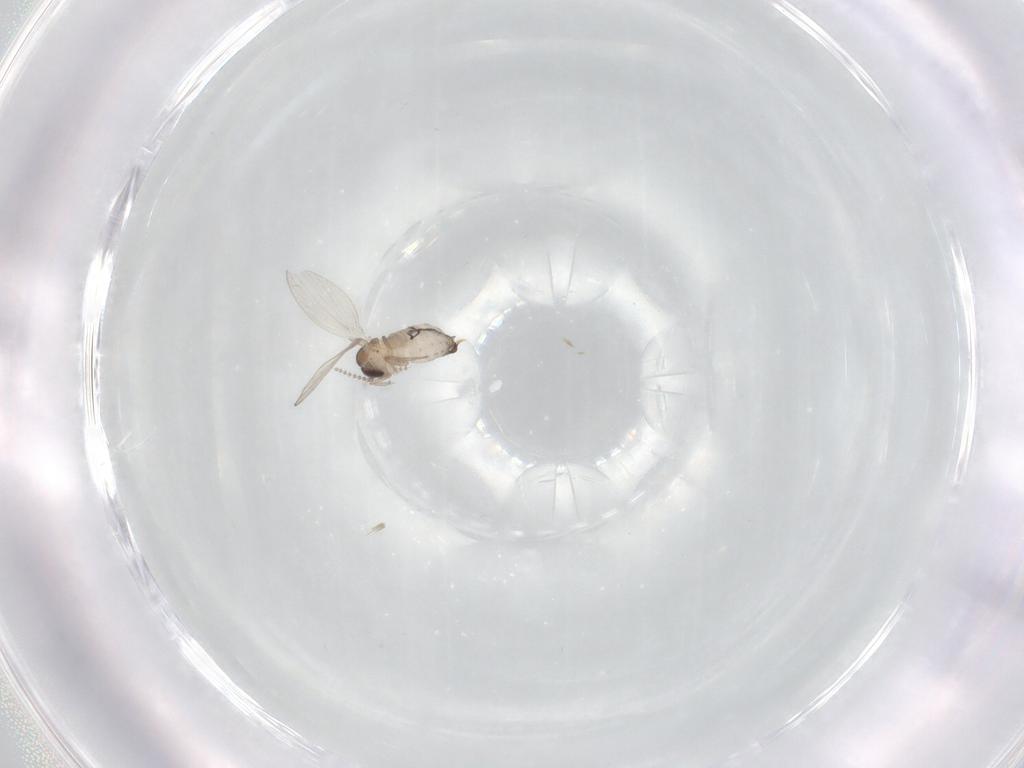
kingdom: Animalia
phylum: Arthropoda
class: Insecta
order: Diptera
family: Psychodidae
